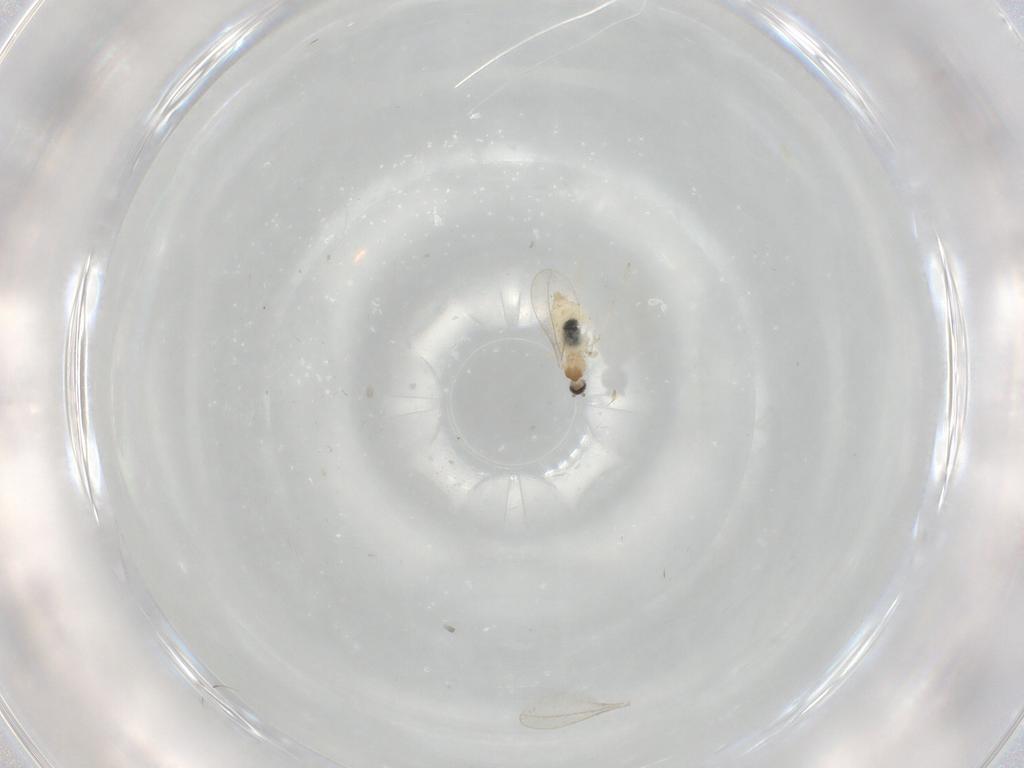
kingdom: Animalia
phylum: Arthropoda
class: Insecta
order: Diptera
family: Cecidomyiidae
